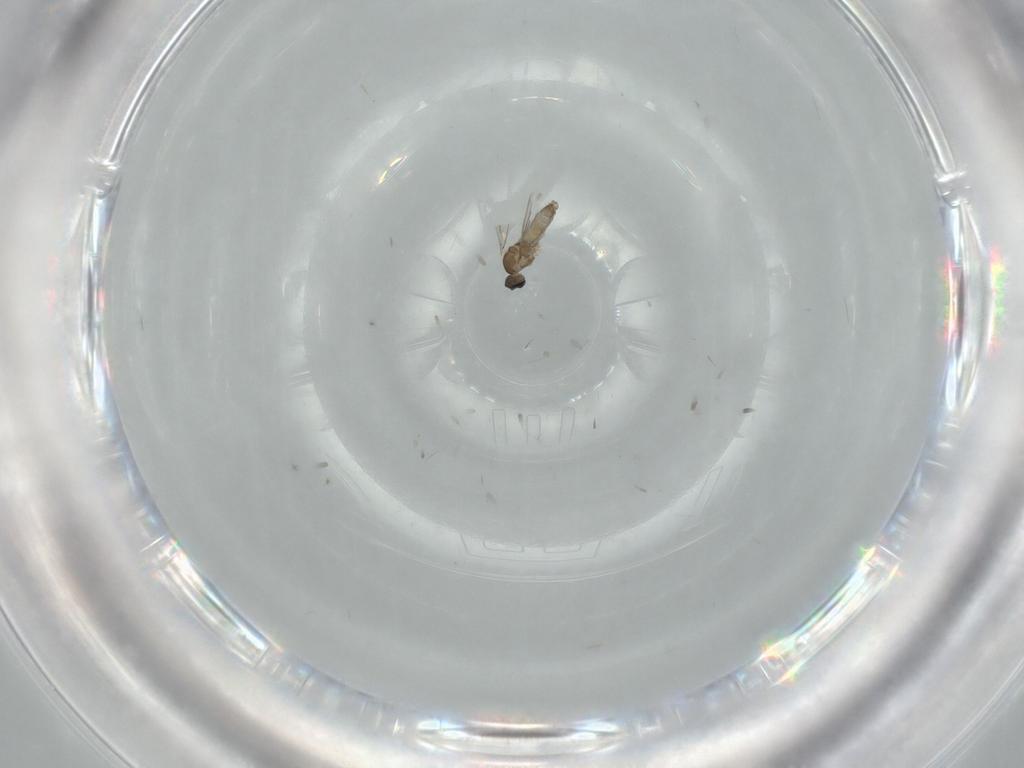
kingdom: Animalia
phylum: Arthropoda
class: Insecta
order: Diptera
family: Cecidomyiidae
